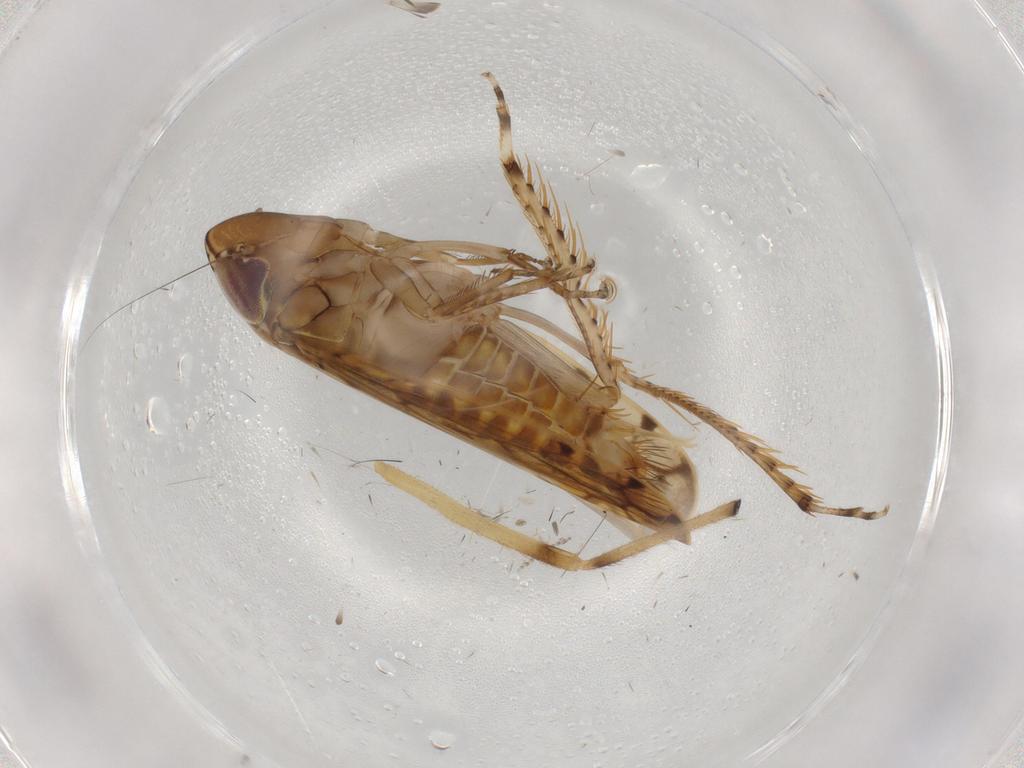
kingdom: Animalia
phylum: Arthropoda
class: Insecta
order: Hemiptera
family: Cicadellidae
